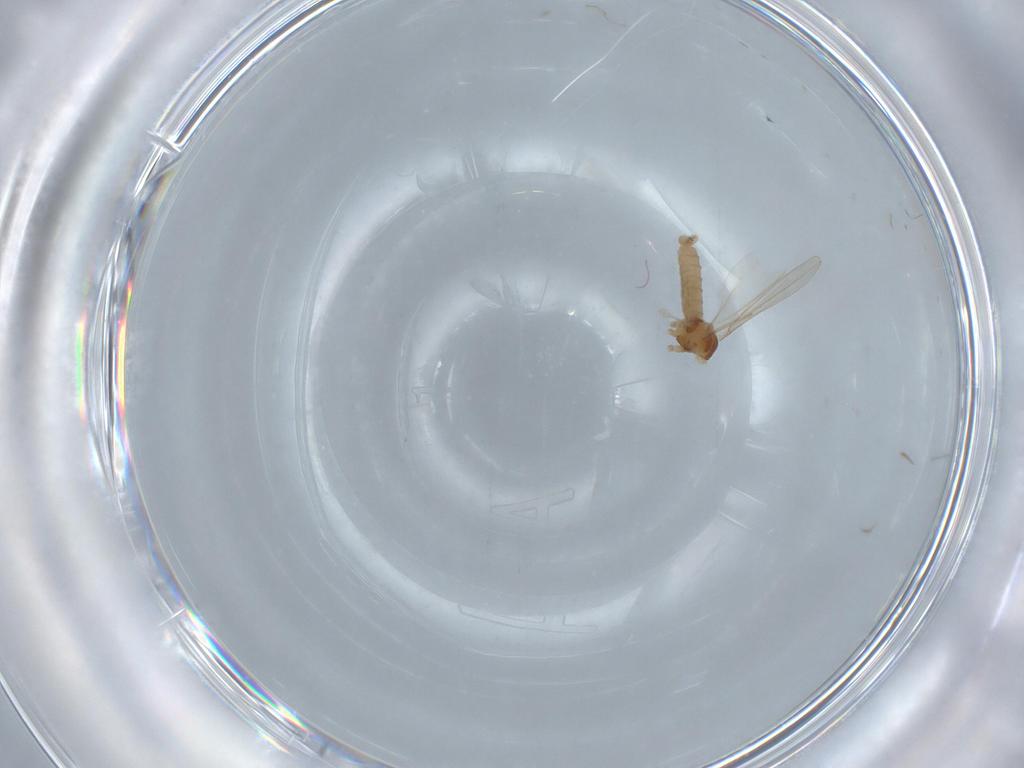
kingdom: Animalia
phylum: Arthropoda
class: Insecta
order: Diptera
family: Cecidomyiidae
